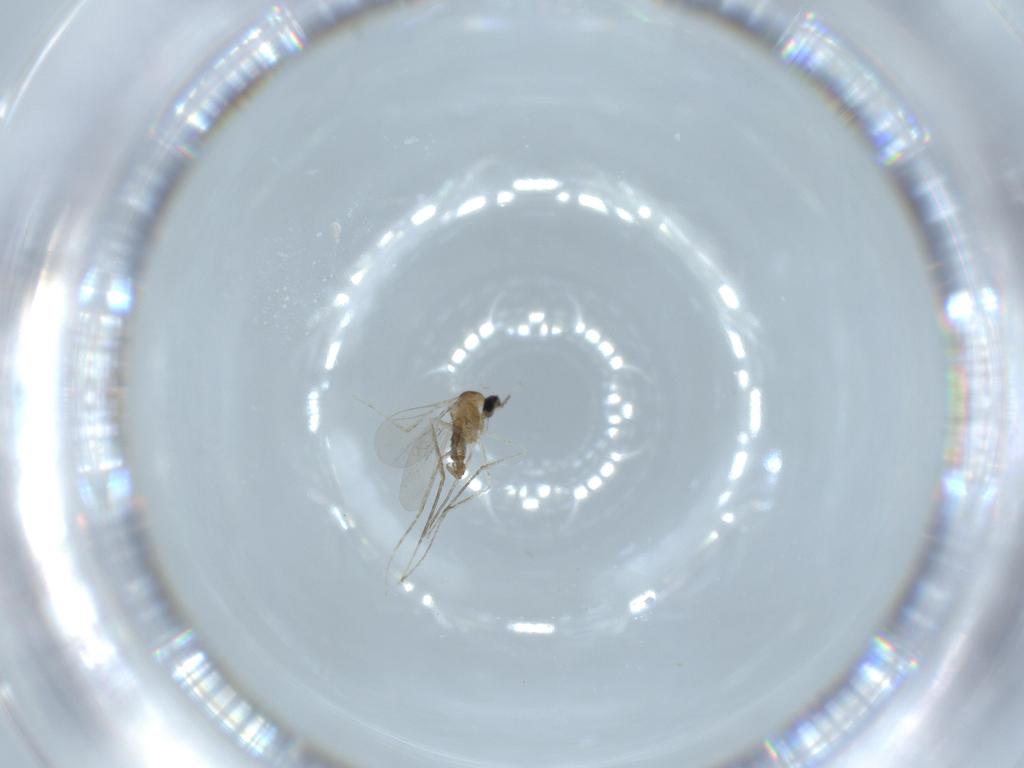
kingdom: Animalia
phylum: Arthropoda
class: Insecta
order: Diptera
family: Cecidomyiidae
